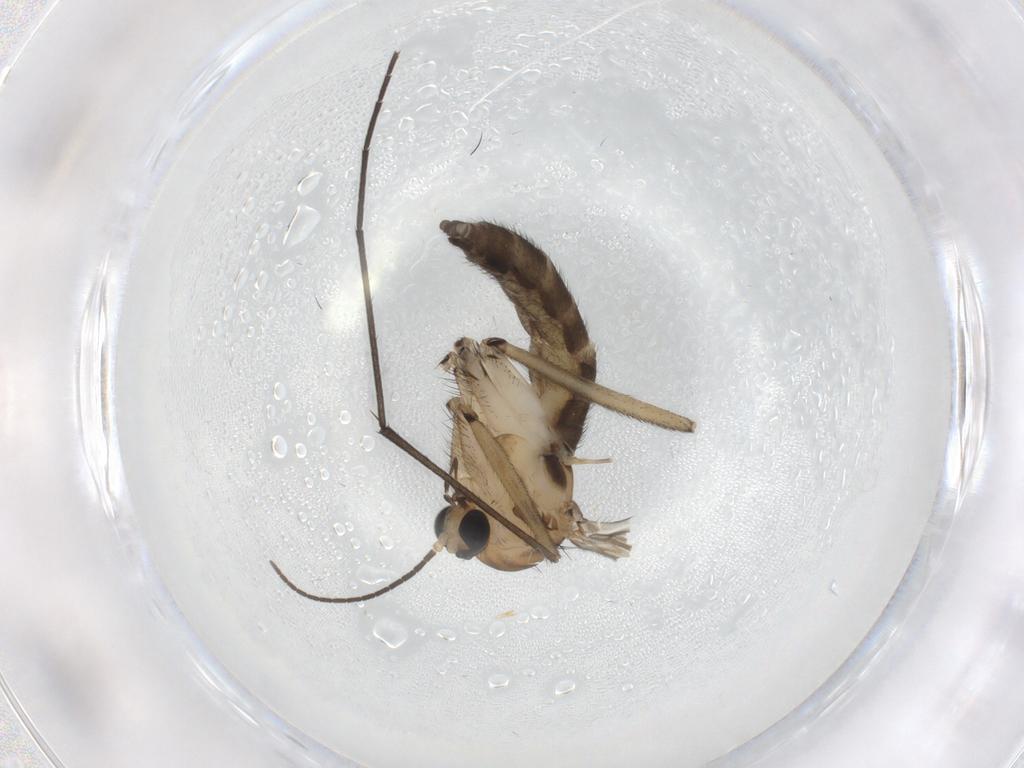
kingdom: Animalia
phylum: Arthropoda
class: Insecta
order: Diptera
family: Sciaridae
